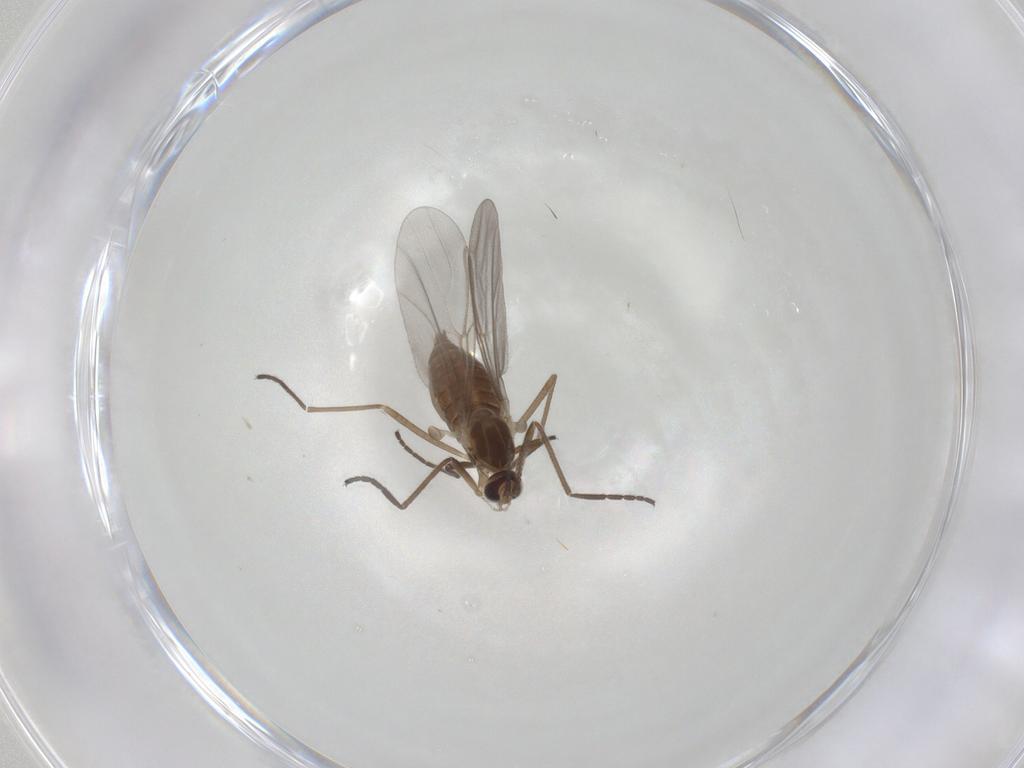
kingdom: Animalia
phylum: Arthropoda
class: Insecta
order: Diptera
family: Cecidomyiidae
